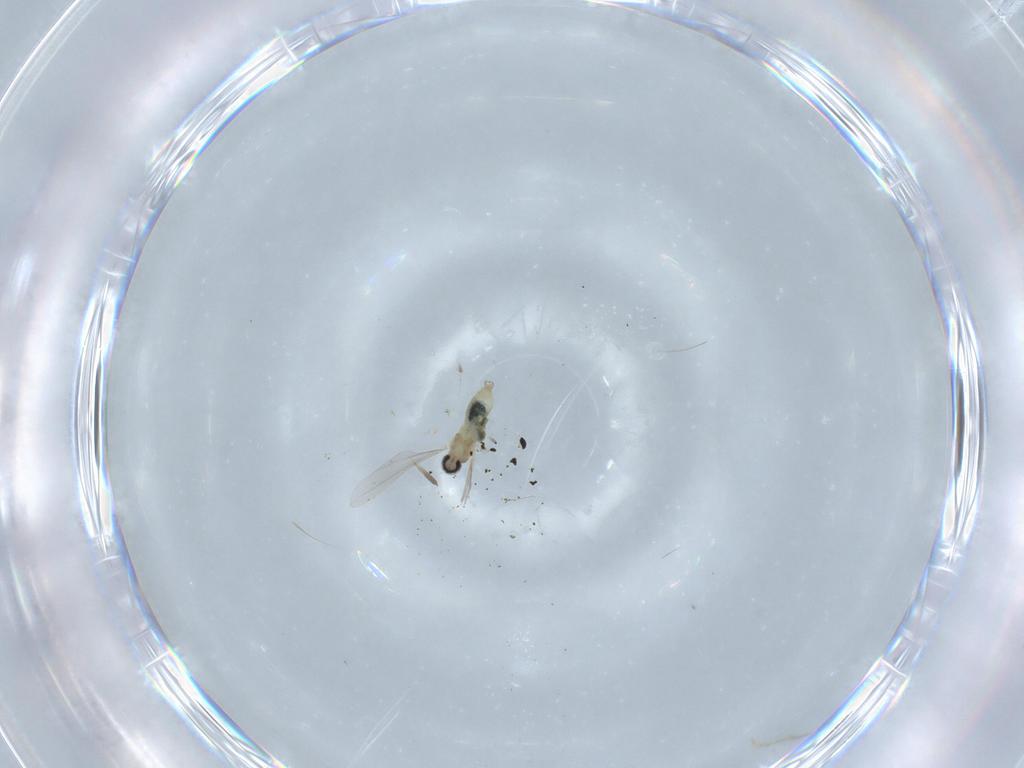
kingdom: Animalia
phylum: Arthropoda
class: Insecta
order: Diptera
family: Cecidomyiidae
